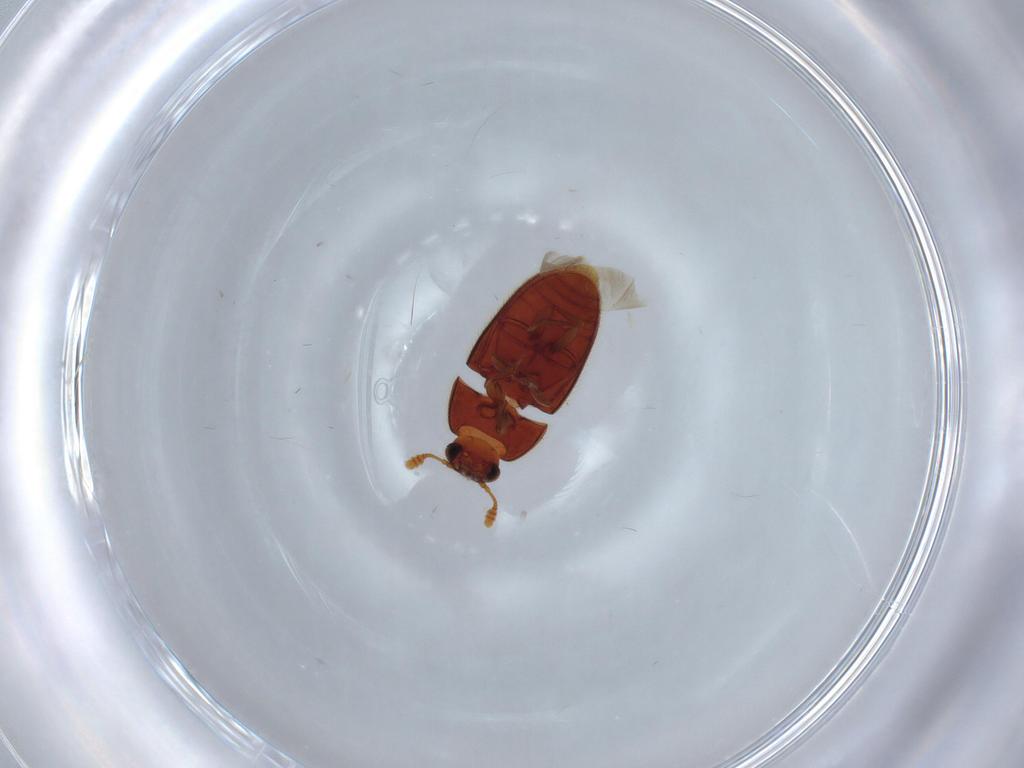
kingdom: Animalia
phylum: Arthropoda
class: Insecta
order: Coleoptera
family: Biphyllidae
